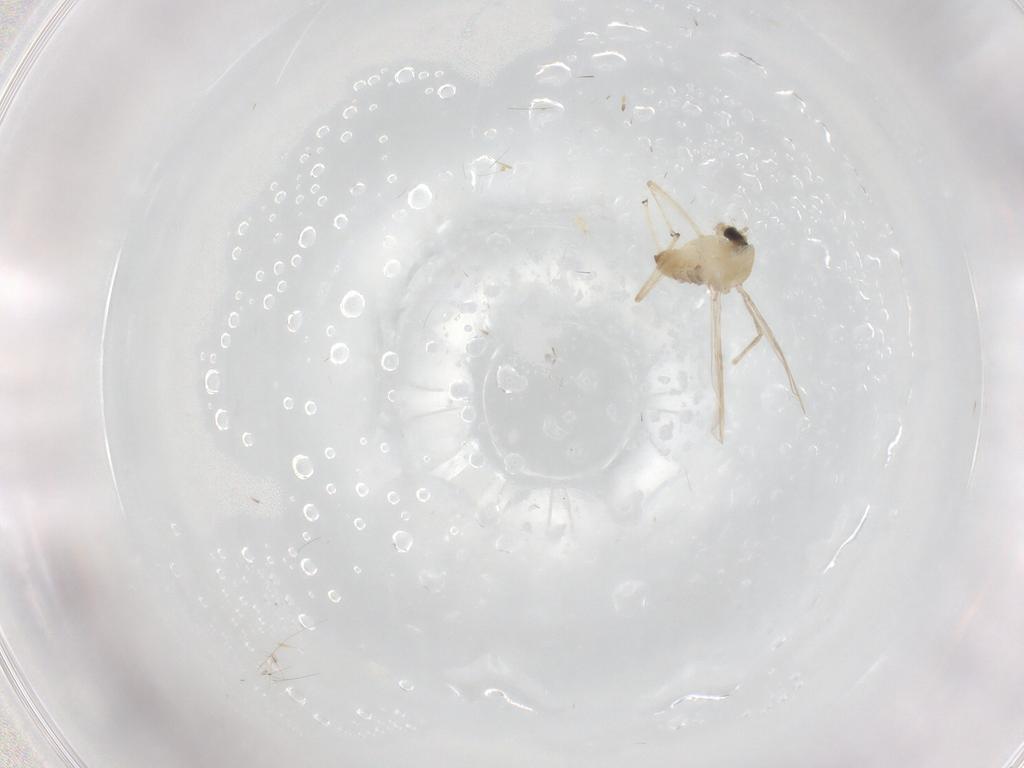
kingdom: Animalia
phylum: Arthropoda
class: Insecta
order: Diptera
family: Chironomidae
